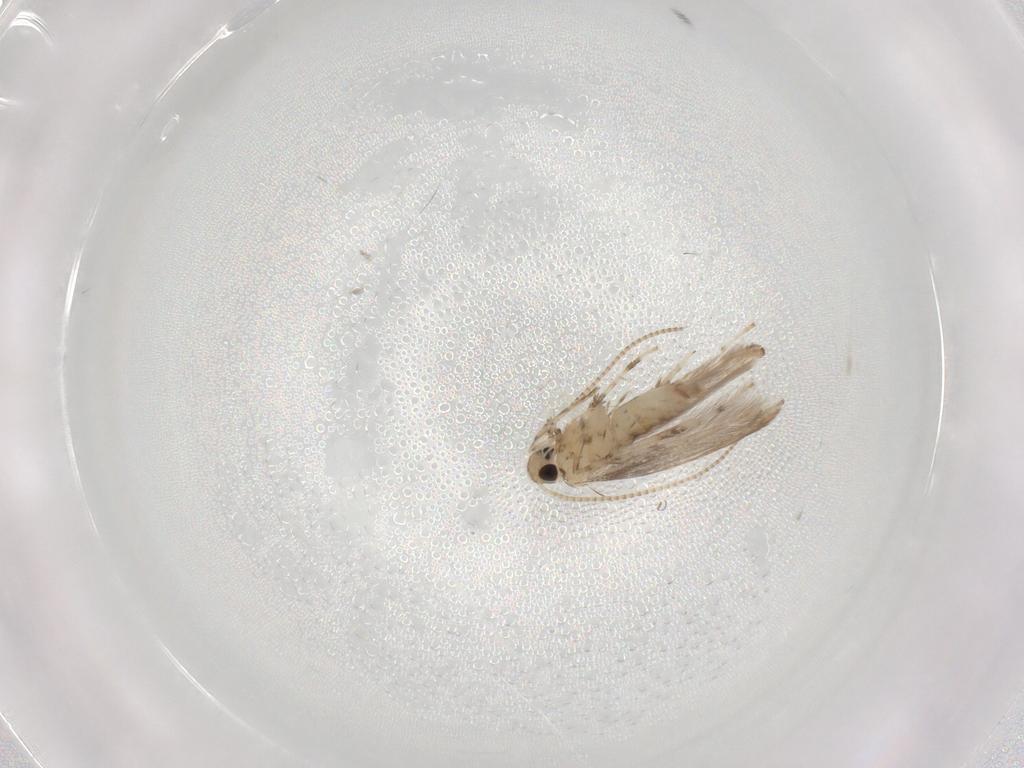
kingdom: Animalia
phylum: Arthropoda
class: Insecta
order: Lepidoptera
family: Gracillariidae
